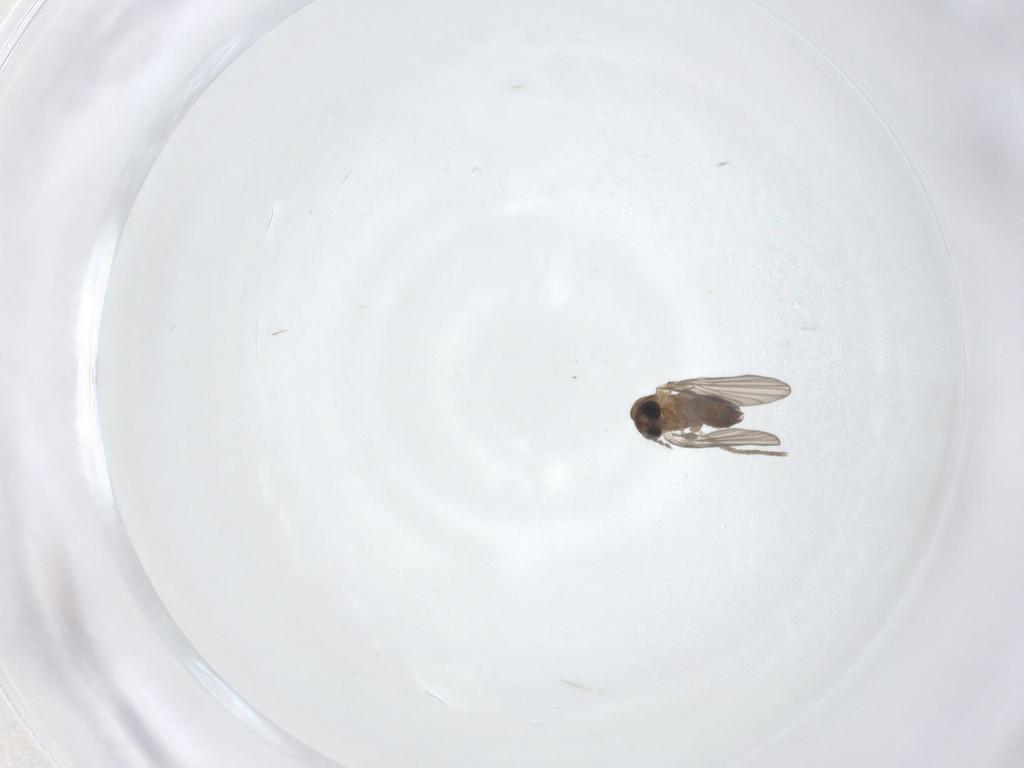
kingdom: Animalia
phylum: Arthropoda
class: Insecta
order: Diptera
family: Psychodidae
